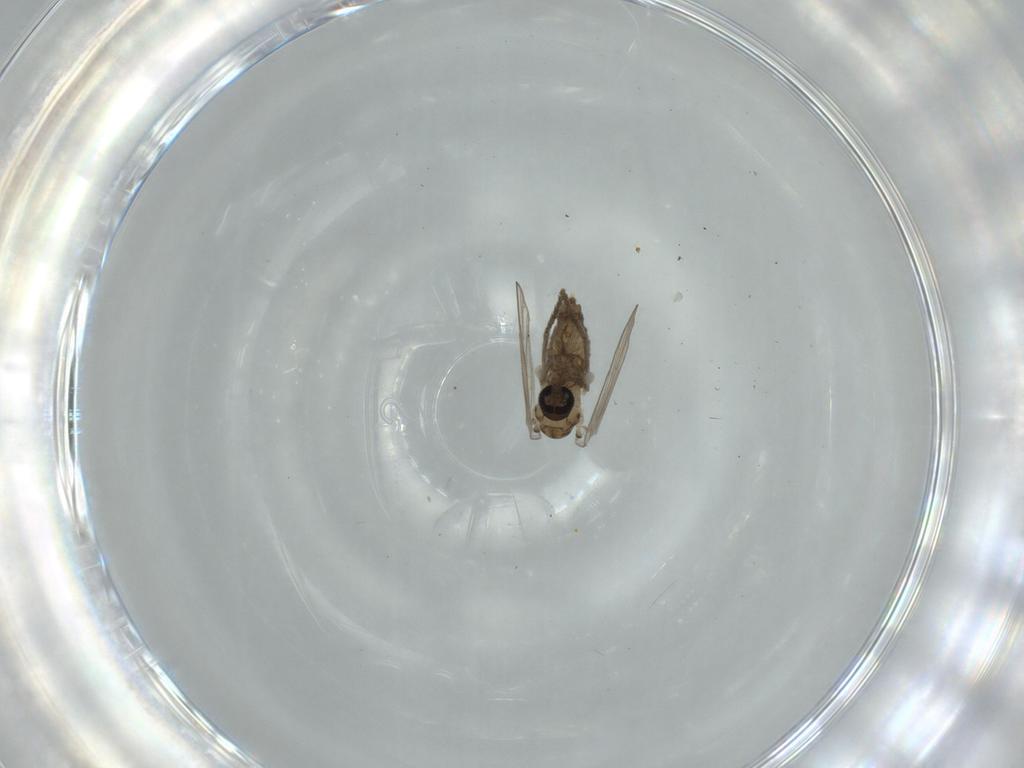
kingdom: Animalia
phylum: Arthropoda
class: Insecta
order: Diptera
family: Psychodidae
